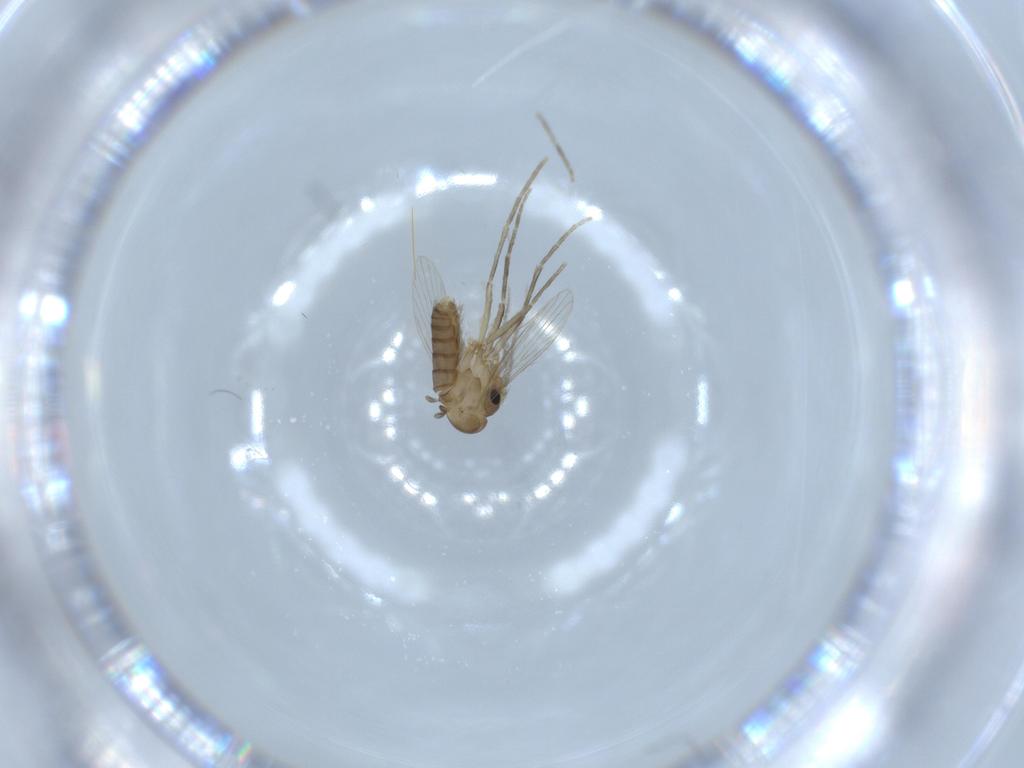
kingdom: Animalia
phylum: Arthropoda
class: Insecta
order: Diptera
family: Psychodidae
